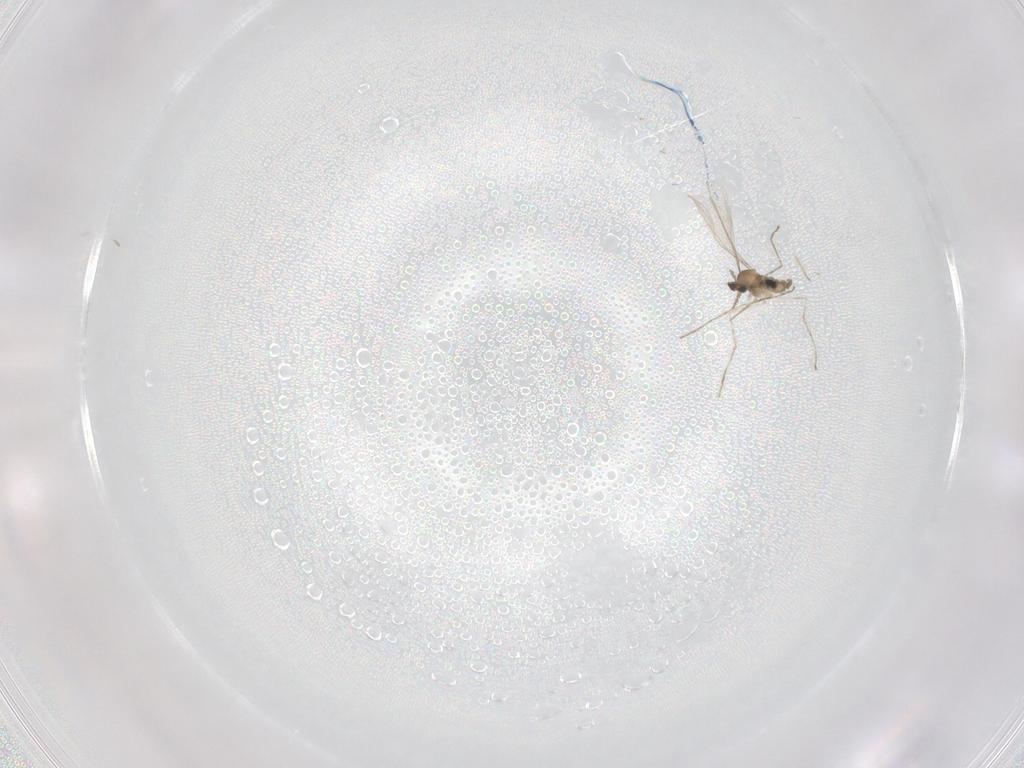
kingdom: Animalia
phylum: Arthropoda
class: Insecta
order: Diptera
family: Cecidomyiidae
